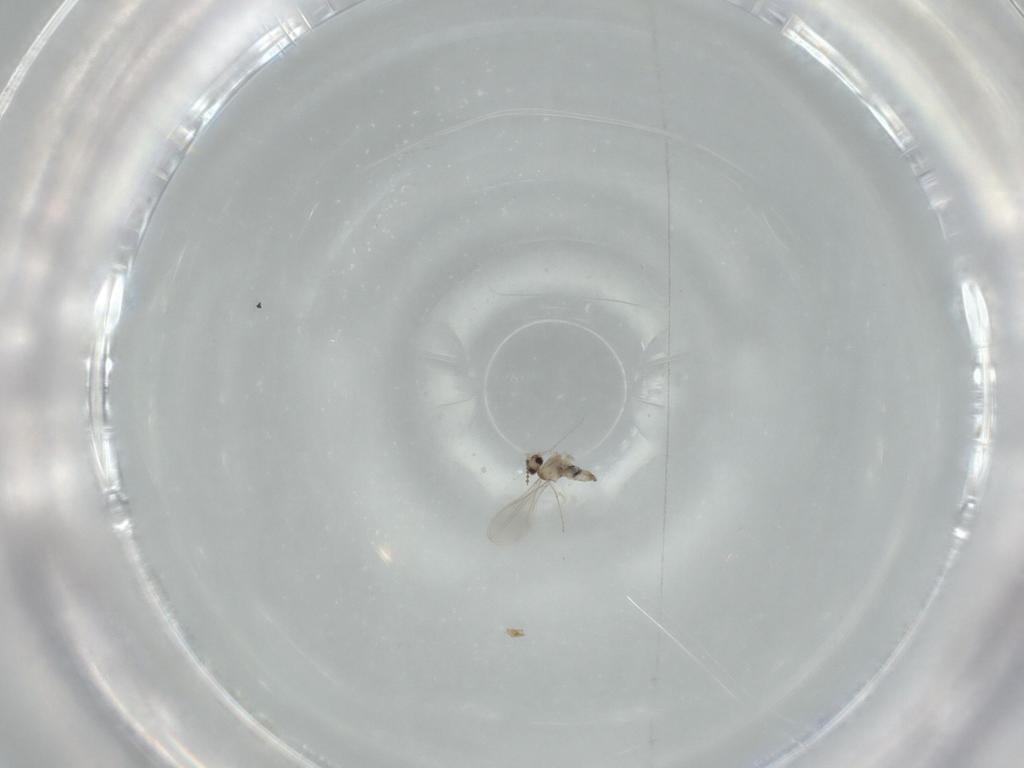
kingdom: Animalia
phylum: Arthropoda
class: Insecta
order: Diptera
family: Cecidomyiidae
